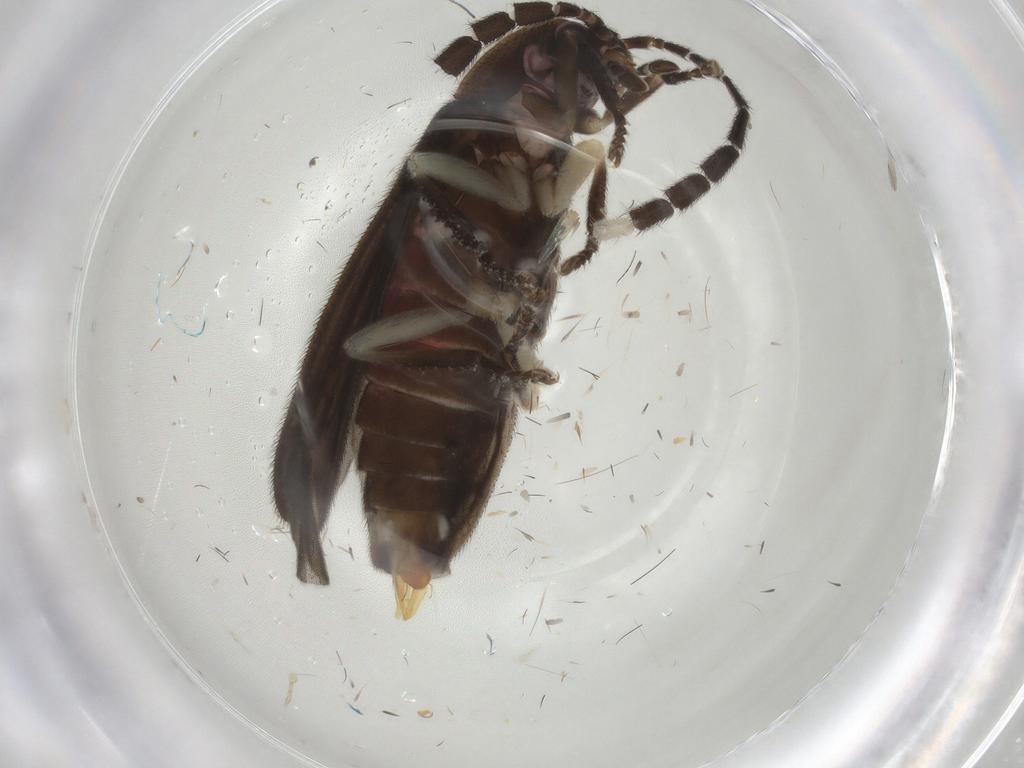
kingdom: Animalia
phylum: Arthropoda
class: Insecta
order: Coleoptera
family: Lampyridae
